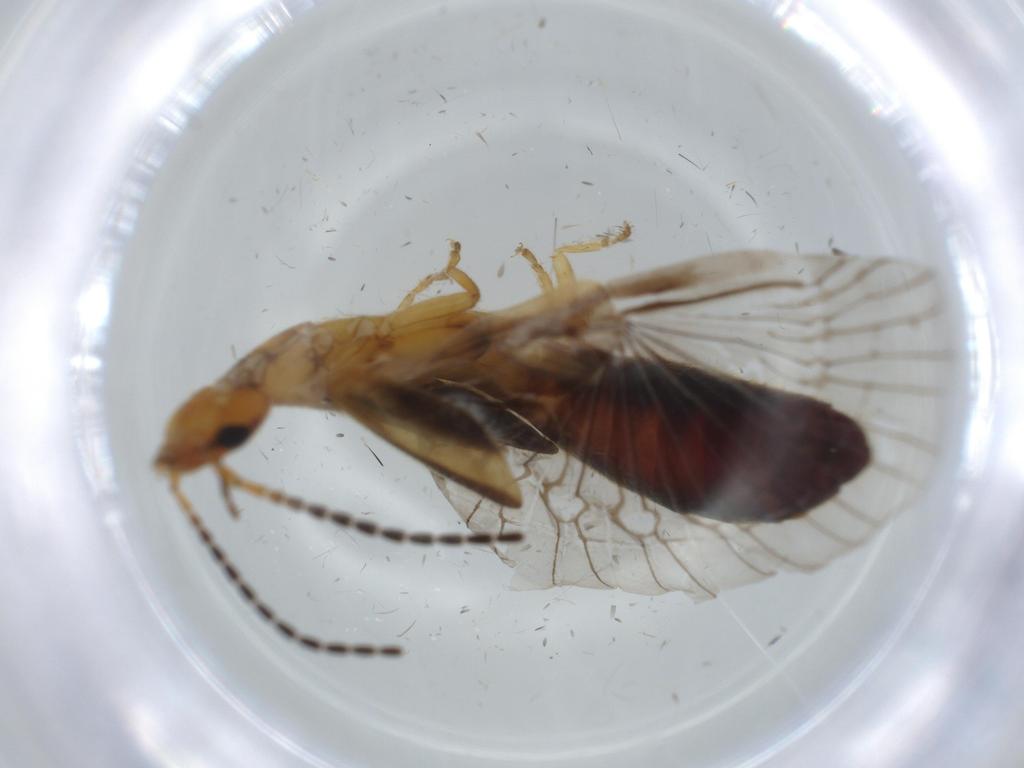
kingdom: Animalia
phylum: Arthropoda
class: Insecta
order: Dermaptera
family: Forficulidae
